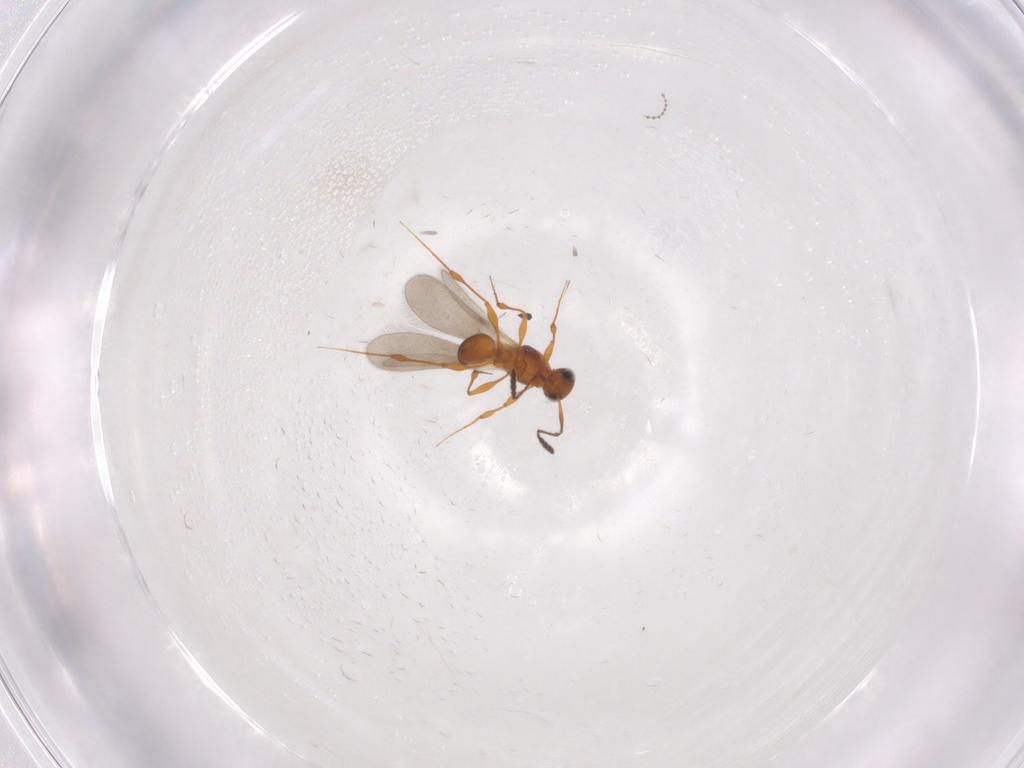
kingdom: Animalia
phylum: Arthropoda
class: Insecta
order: Hymenoptera
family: Platygastridae
